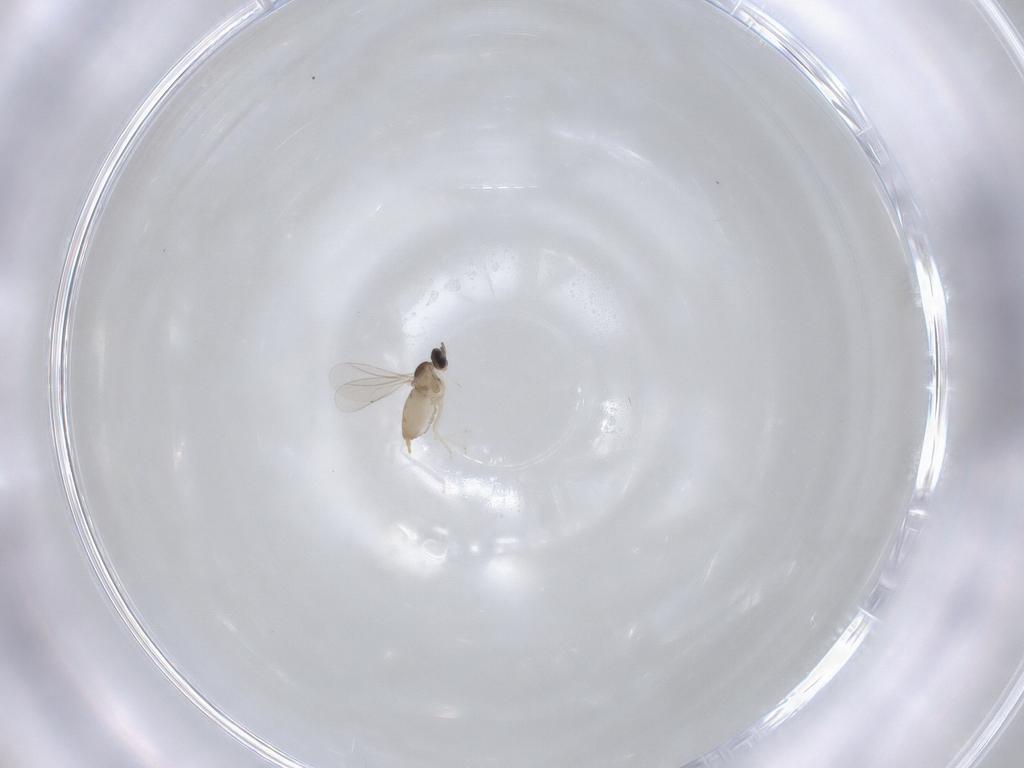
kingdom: Animalia
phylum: Arthropoda
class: Insecta
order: Diptera
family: Cecidomyiidae
